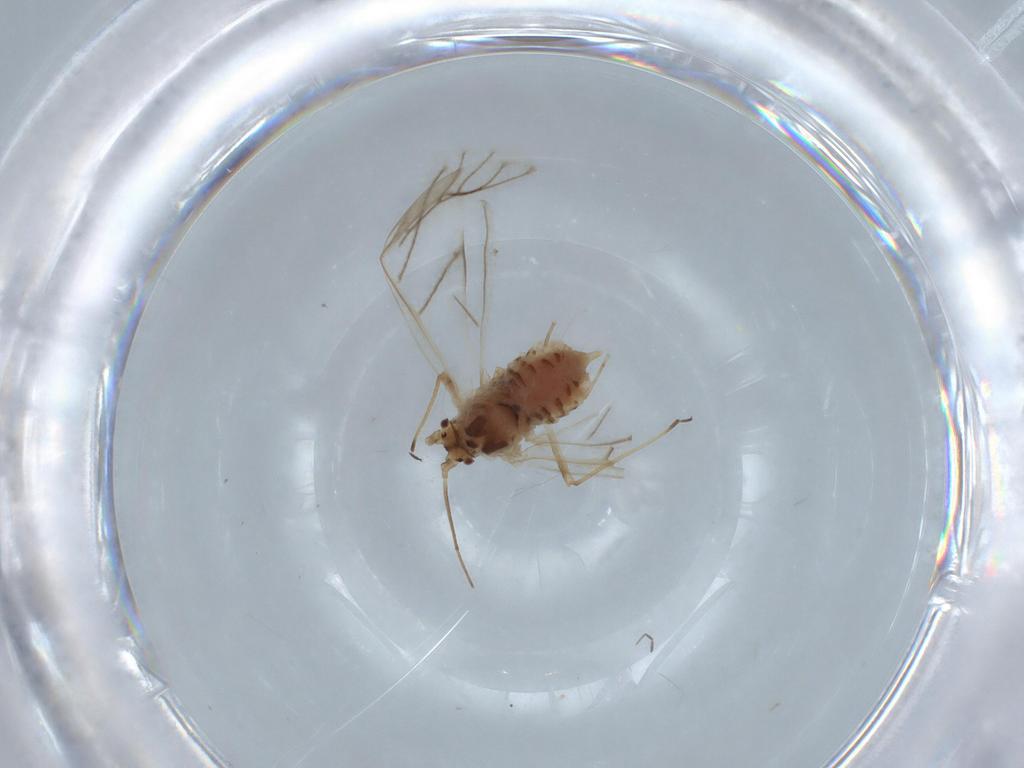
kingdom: Animalia
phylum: Arthropoda
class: Insecta
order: Hemiptera
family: Aphididae
